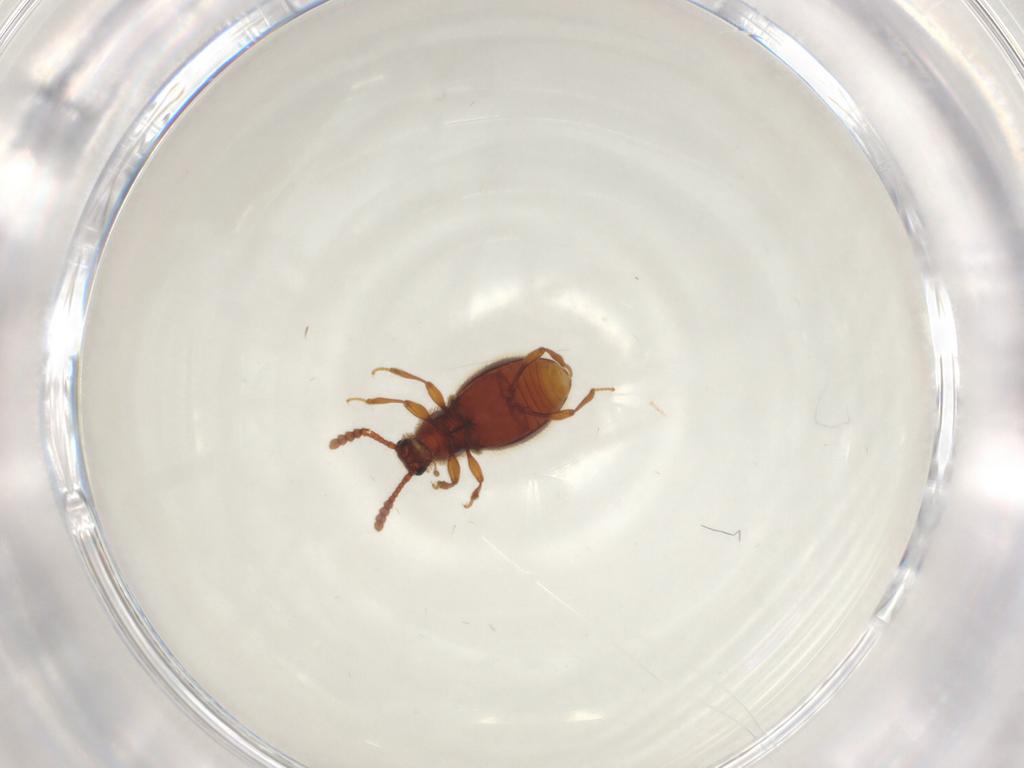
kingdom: Animalia
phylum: Arthropoda
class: Insecta
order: Coleoptera
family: Staphylinidae
